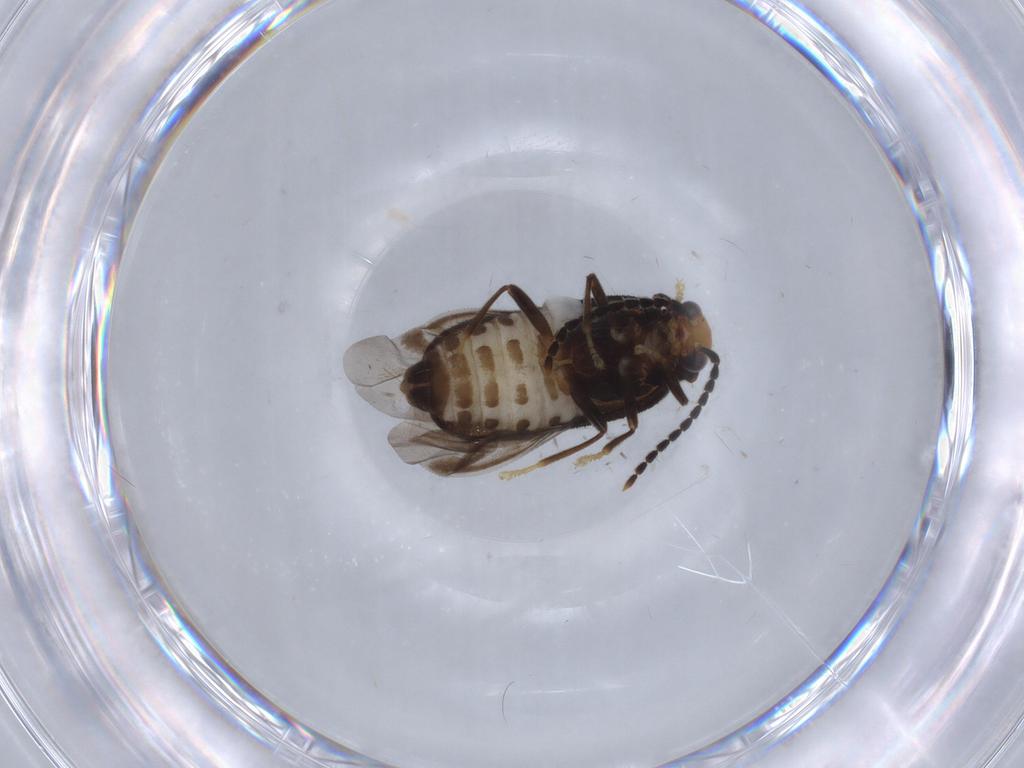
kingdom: Animalia
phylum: Arthropoda
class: Insecta
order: Coleoptera
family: Cantharidae
